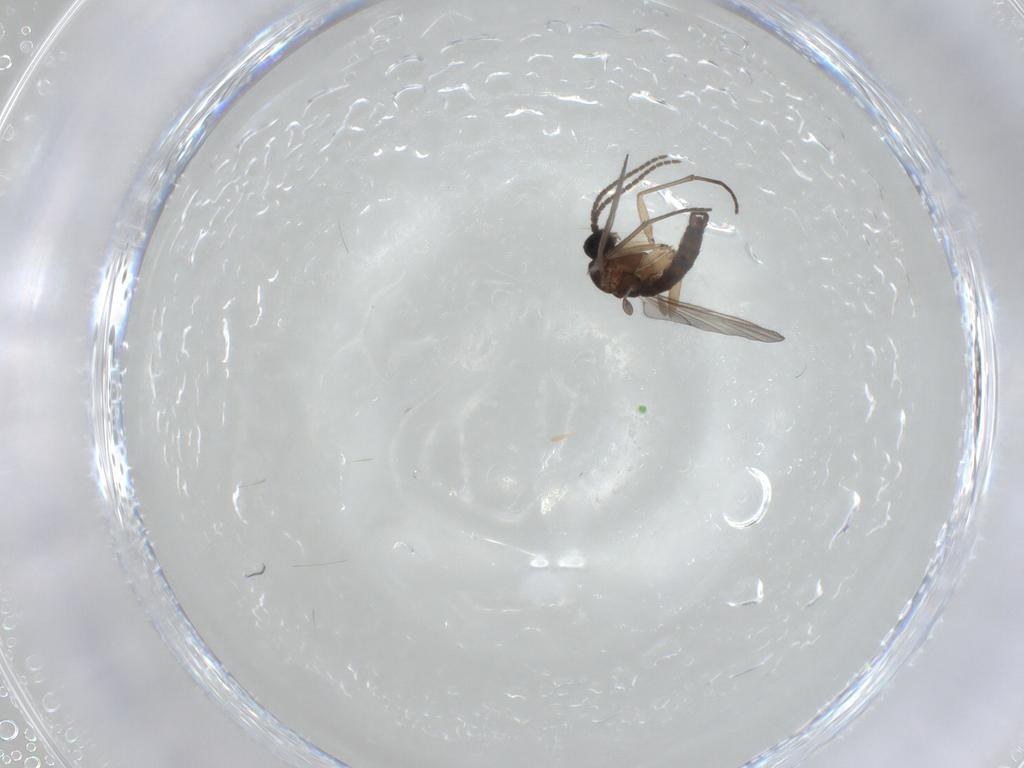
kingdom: Animalia
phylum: Arthropoda
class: Insecta
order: Diptera
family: Sciaridae
